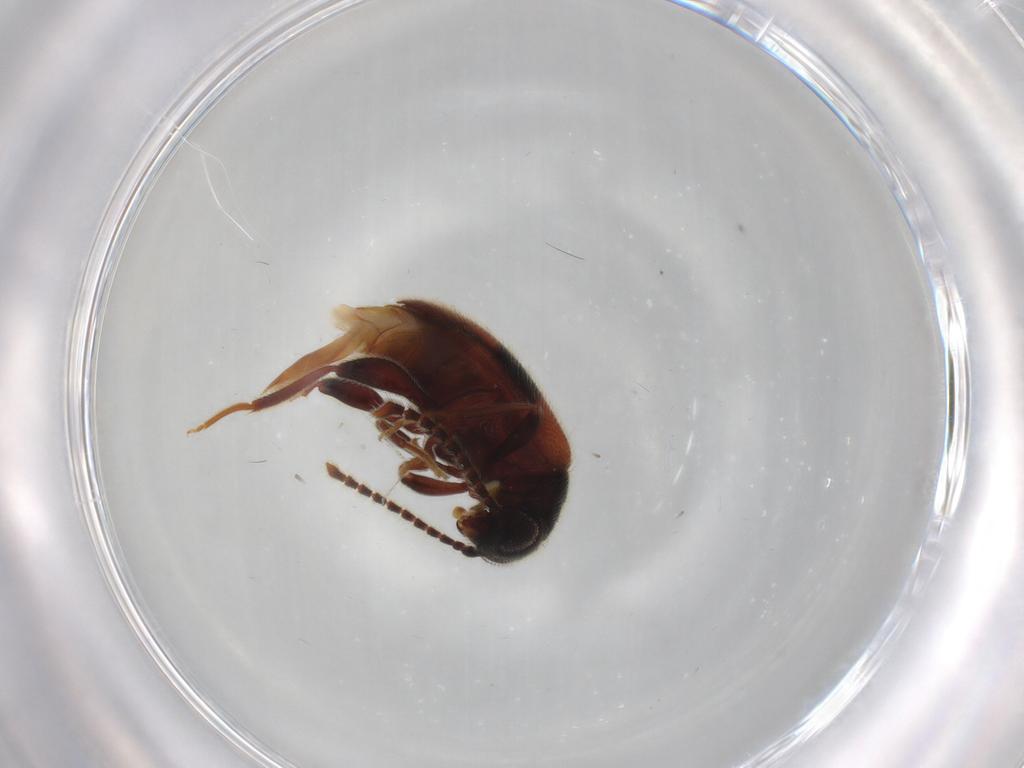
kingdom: Animalia
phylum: Arthropoda
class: Insecta
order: Coleoptera
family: Aderidae
